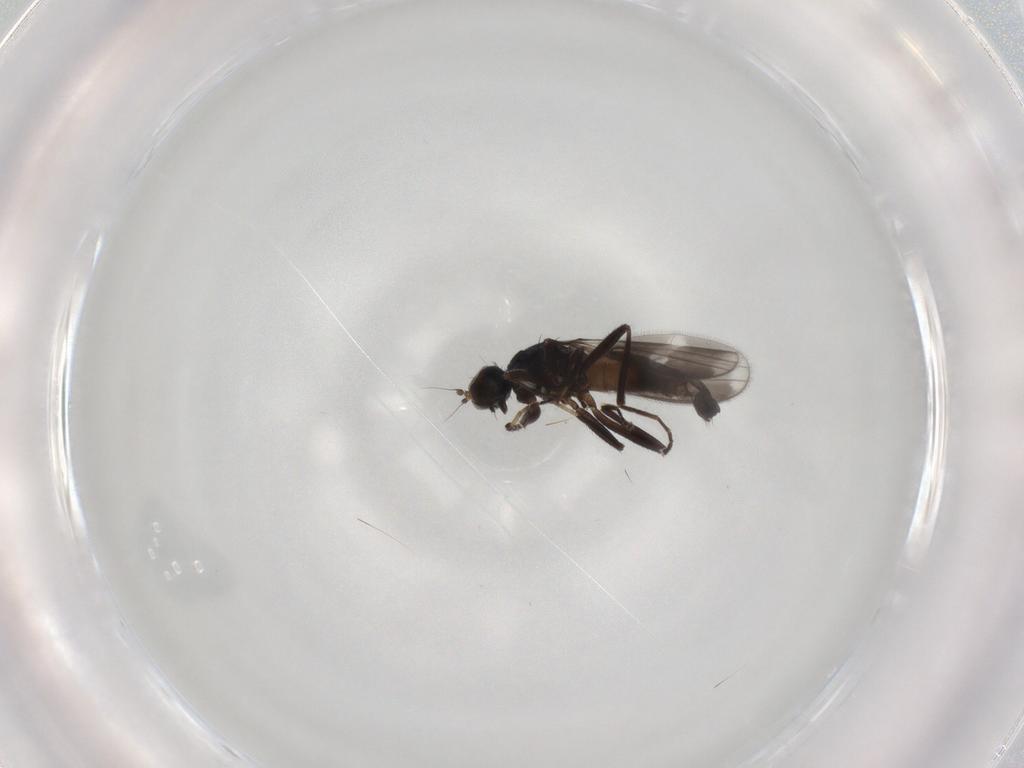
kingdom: Animalia
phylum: Arthropoda
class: Insecta
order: Diptera
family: Hybotidae
